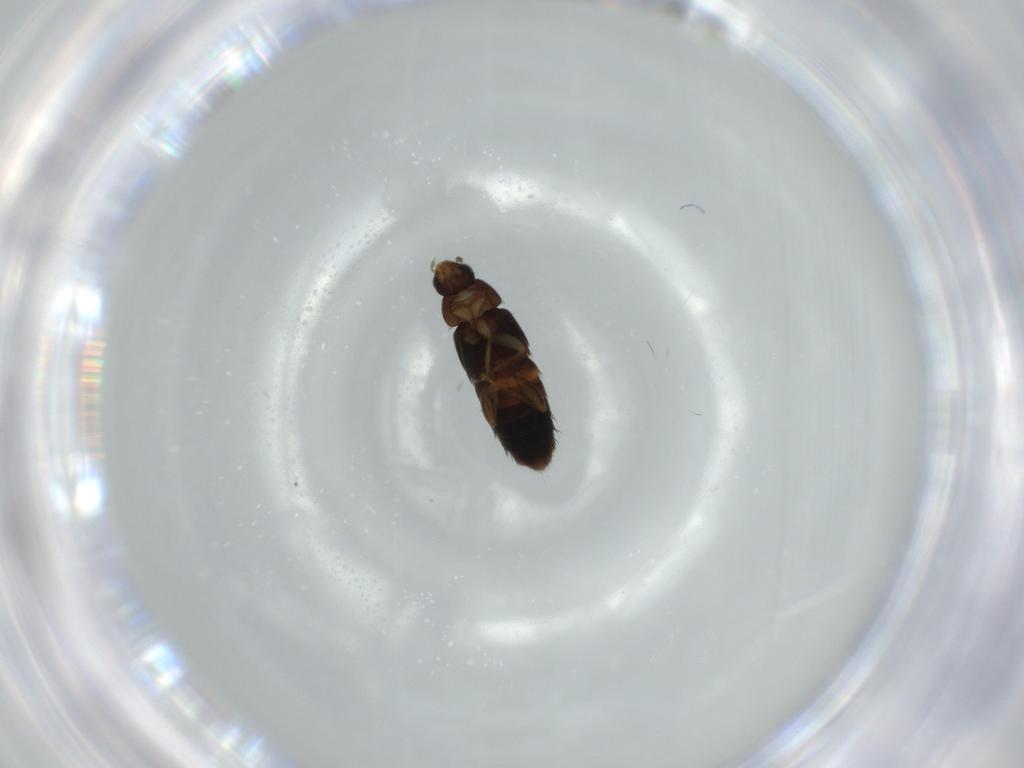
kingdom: Animalia
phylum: Arthropoda
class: Insecta
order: Coleoptera
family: Staphylinidae
